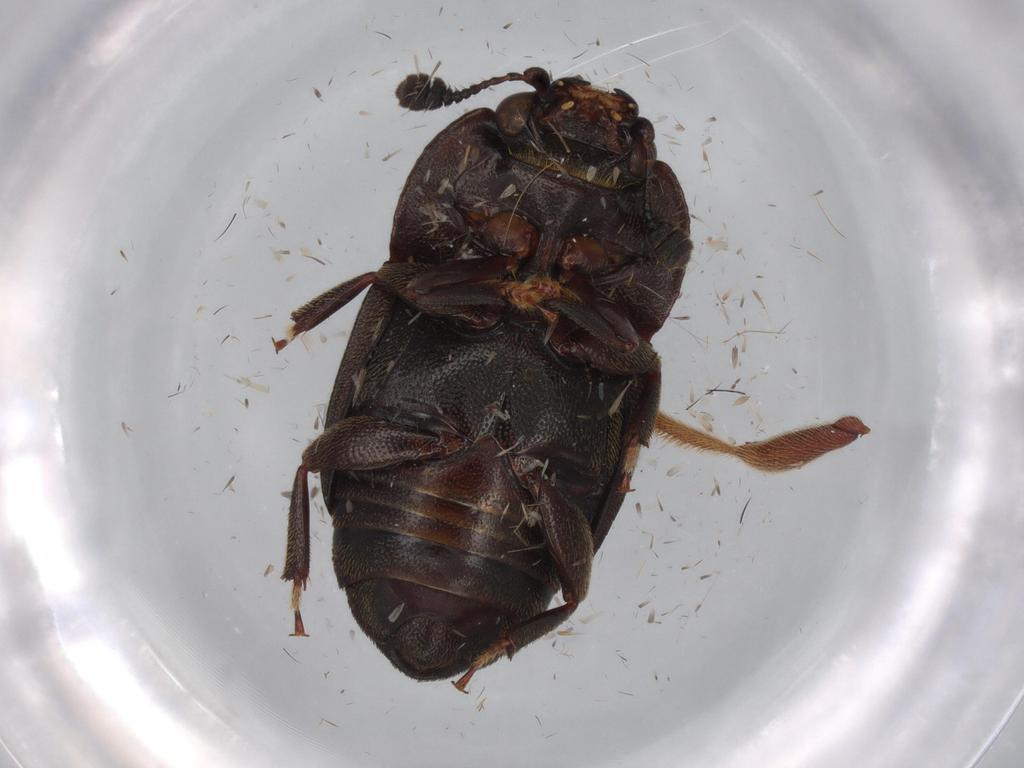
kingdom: Animalia
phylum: Arthropoda
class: Insecta
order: Coleoptera
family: Nitidulidae
